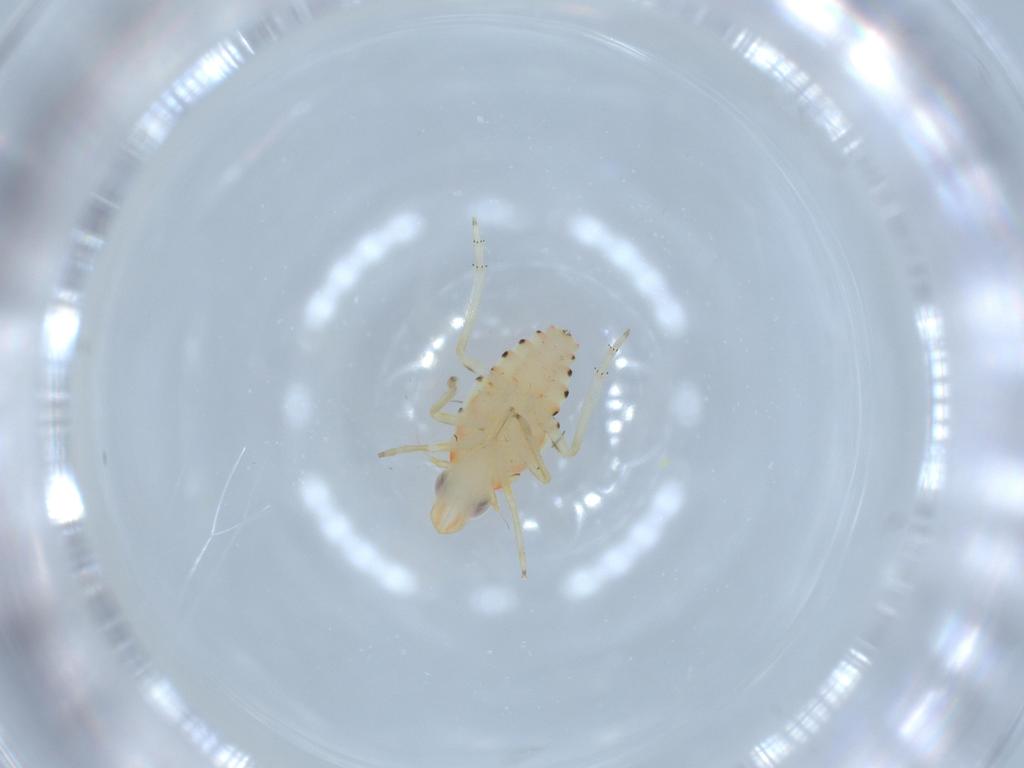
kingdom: Animalia
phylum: Arthropoda
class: Insecta
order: Hemiptera
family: Tropiduchidae
